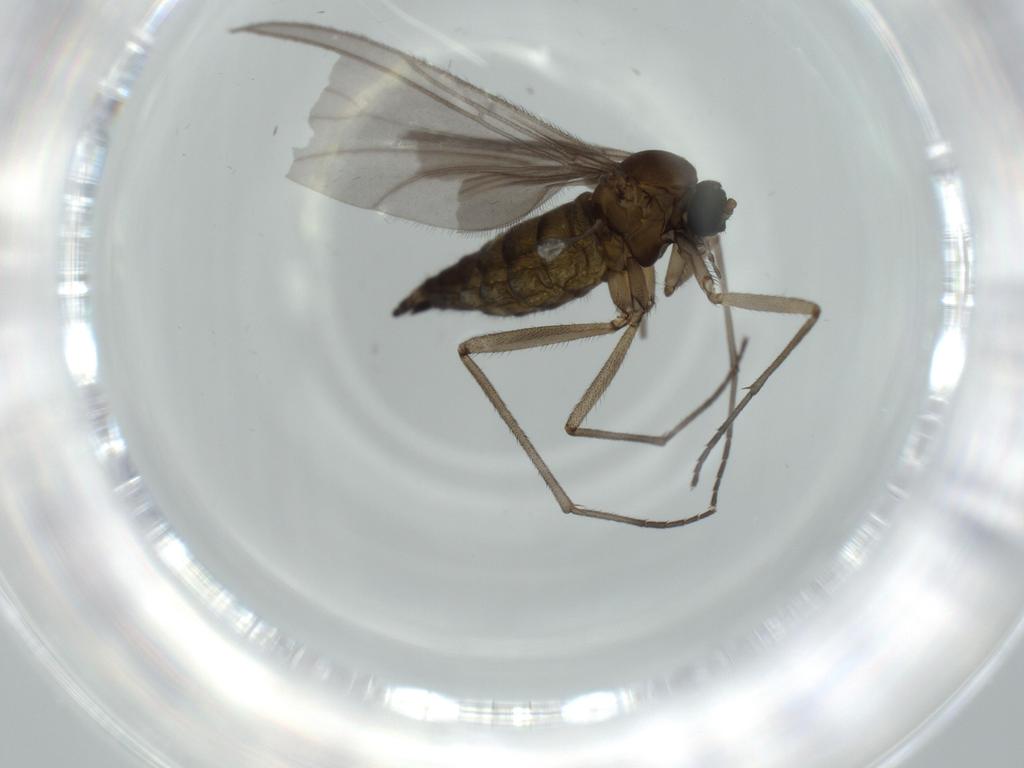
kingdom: Animalia
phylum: Arthropoda
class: Insecta
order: Diptera
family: Sciaridae
